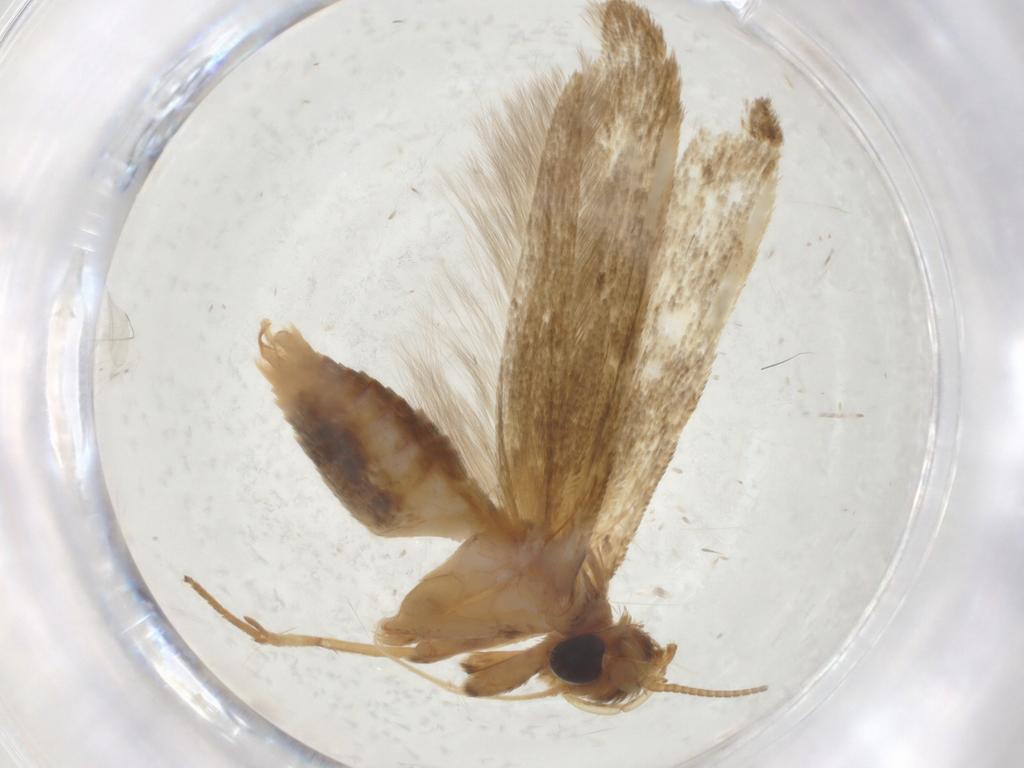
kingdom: Animalia
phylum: Arthropoda
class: Insecta
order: Lepidoptera
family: Blastobasidae
